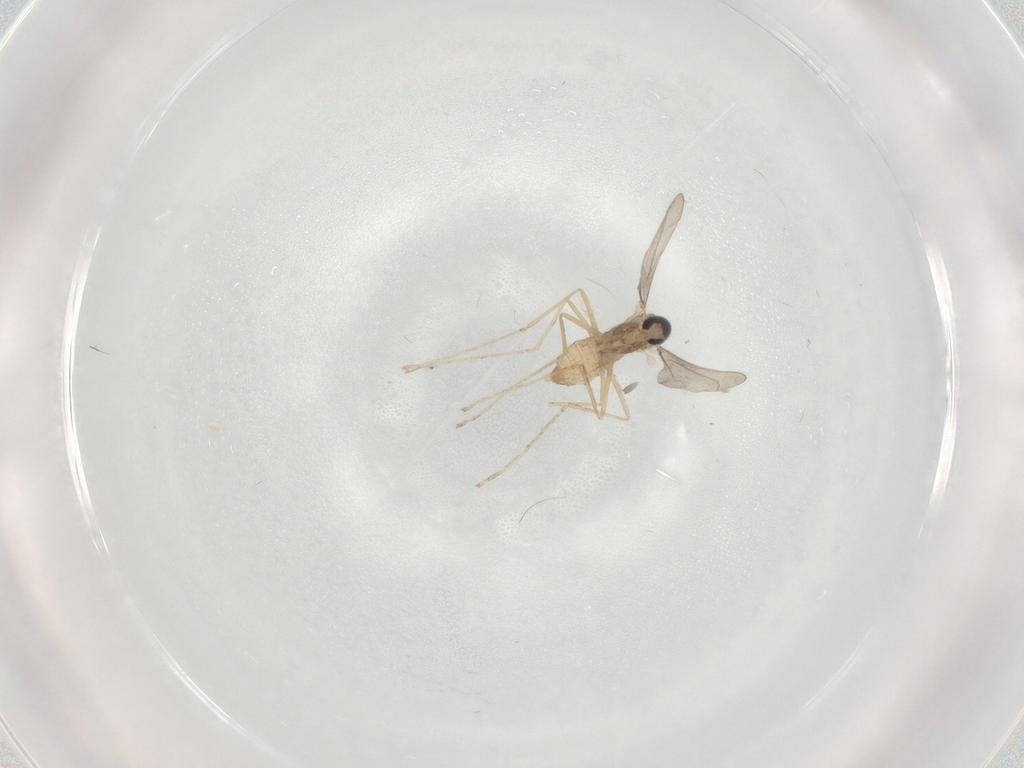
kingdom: Animalia
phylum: Arthropoda
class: Insecta
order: Diptera
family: Cecidomyiidae
